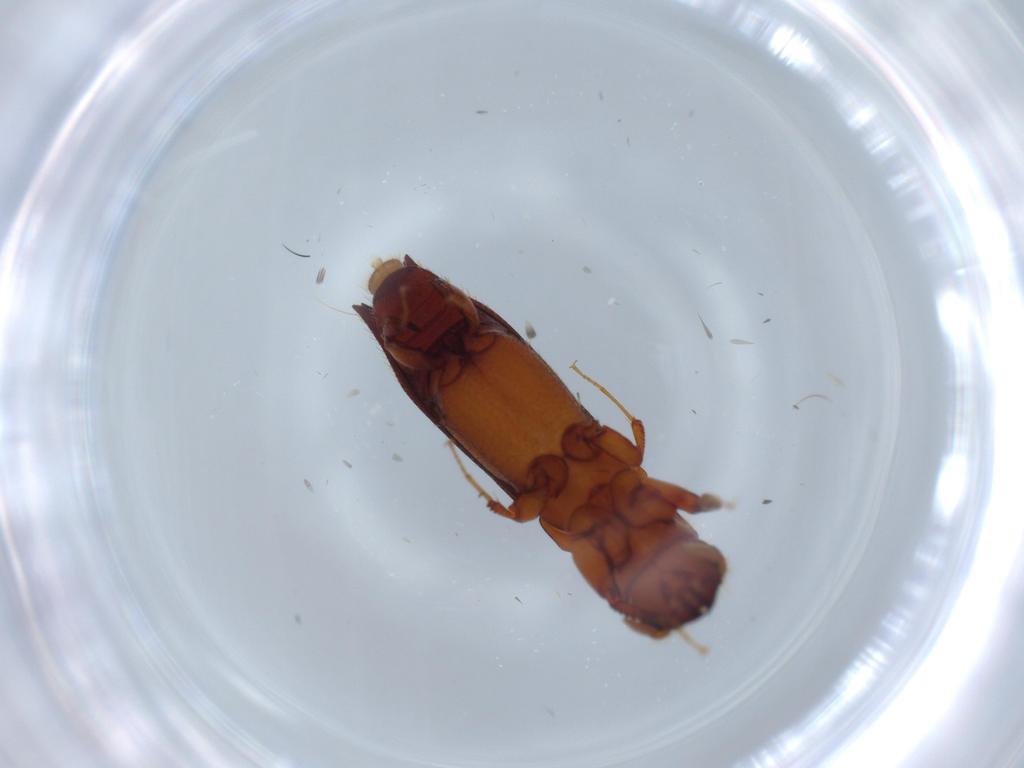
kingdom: Animalia
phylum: Arthropoda
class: Insecta
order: Coleoptera
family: Curculionidae
